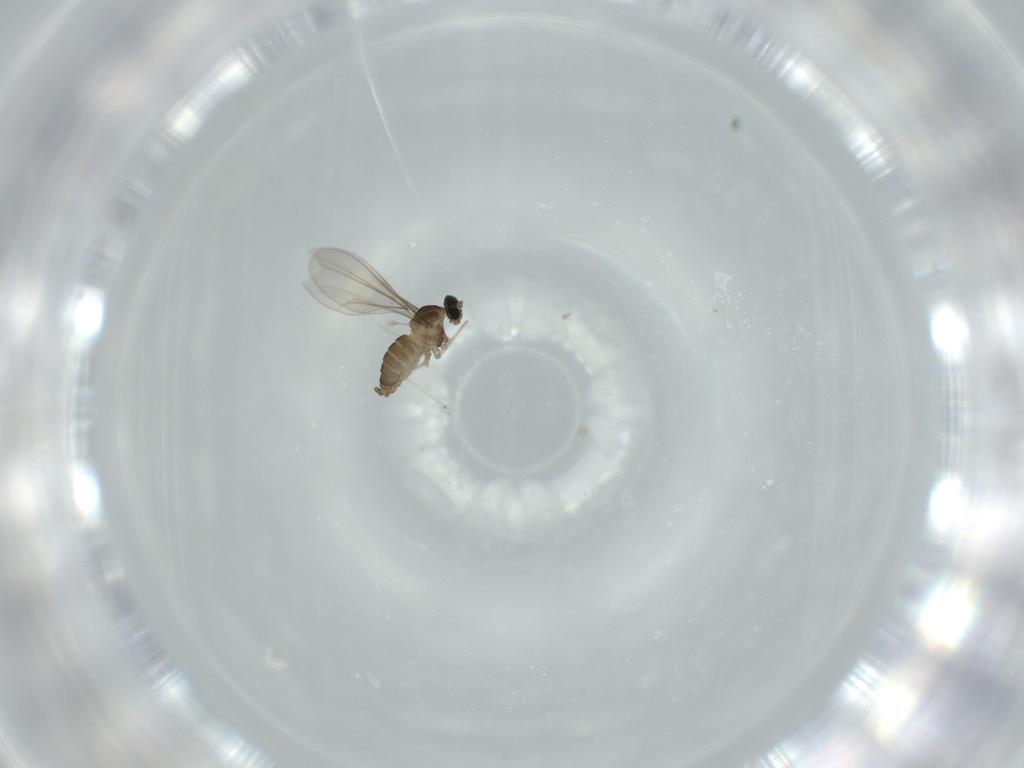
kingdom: Animalia
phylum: Arthropoda
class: Insecta
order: Diptera
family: Cecidomyiidae
